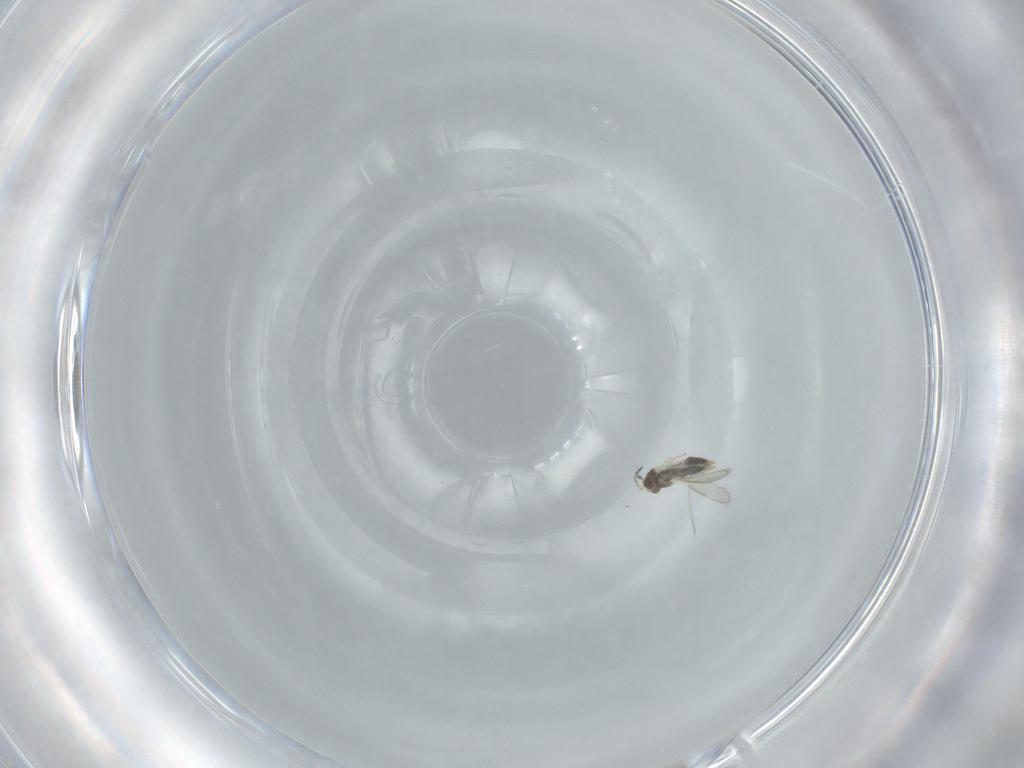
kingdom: Animalia
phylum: Arthropoda
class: Insecta
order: Hymenoptera
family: Aphelinidae
